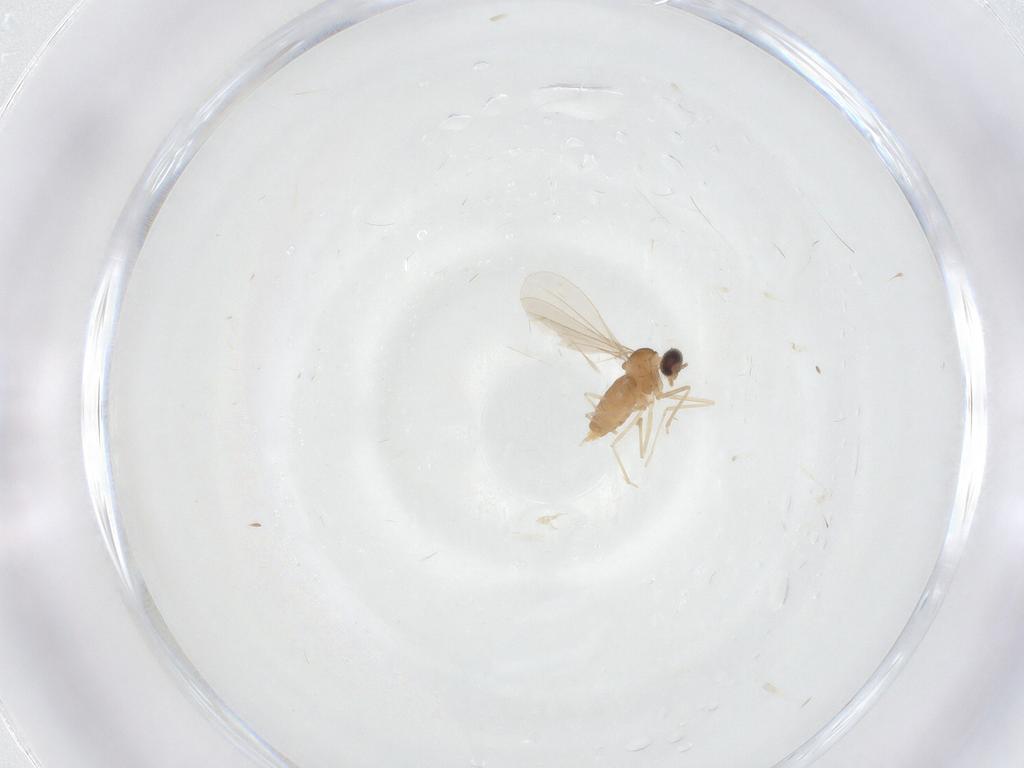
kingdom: Animalia
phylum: Arthropoda
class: Insecta
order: Diptera
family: Cecidomyiidae
